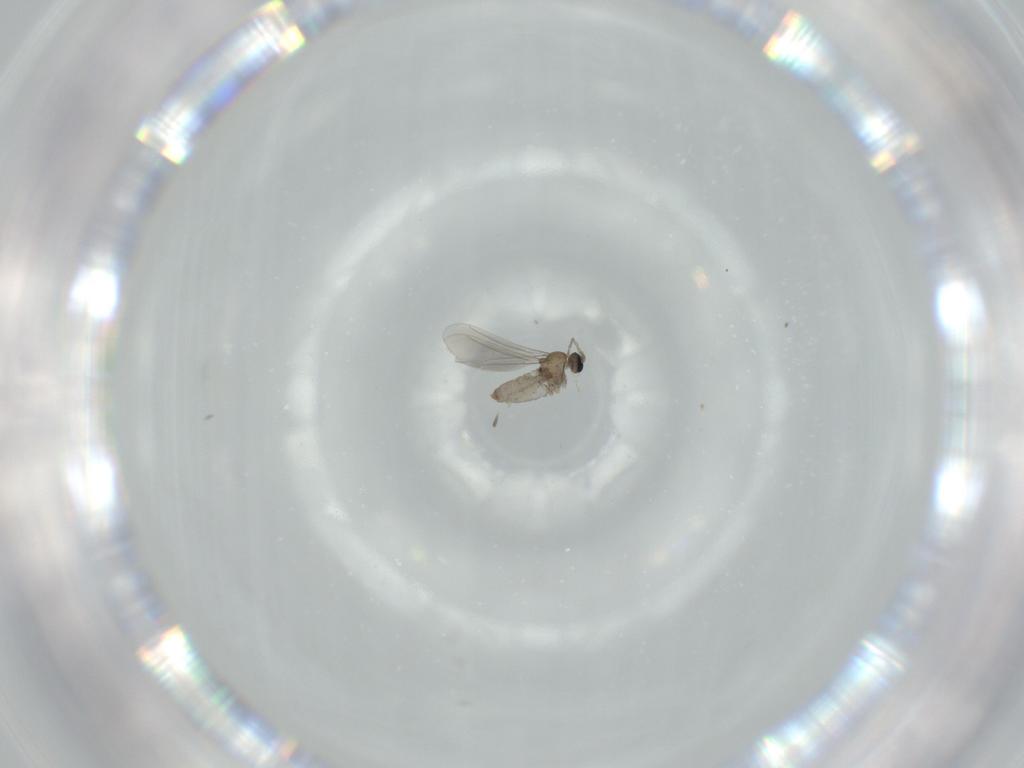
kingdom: Animalia
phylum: Arthropoda
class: Insecta
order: Diptera
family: Cecidomyiidae
